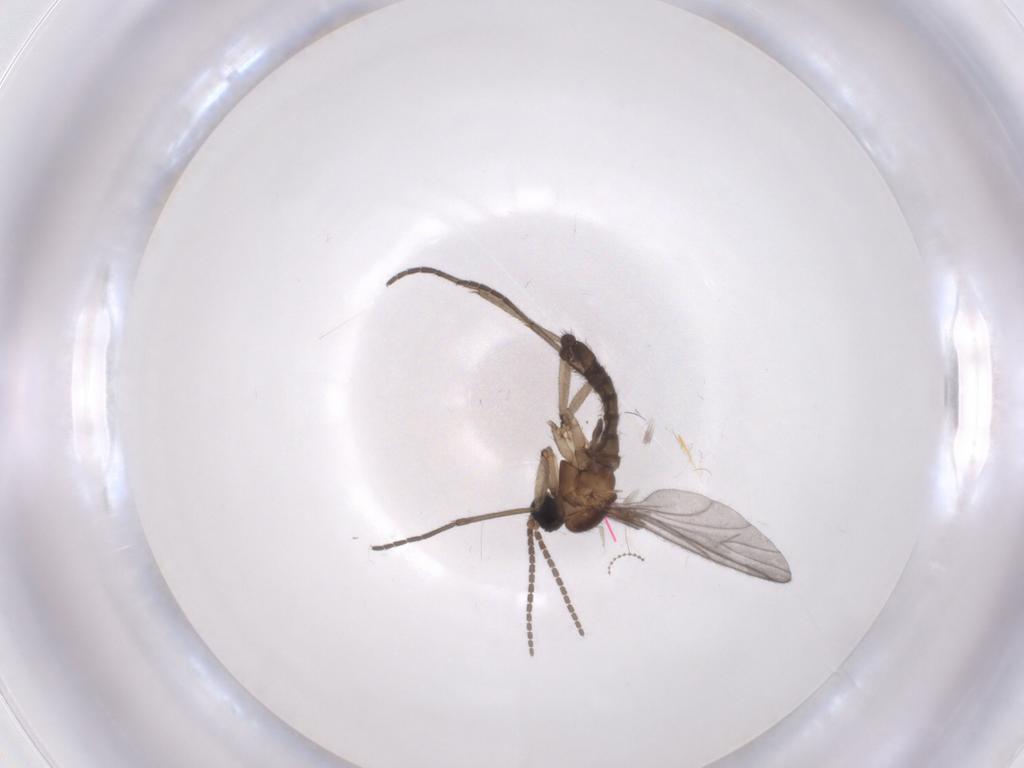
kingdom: Animalia
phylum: Arthropoda
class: Insecta
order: Diptera
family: Sciaridae
